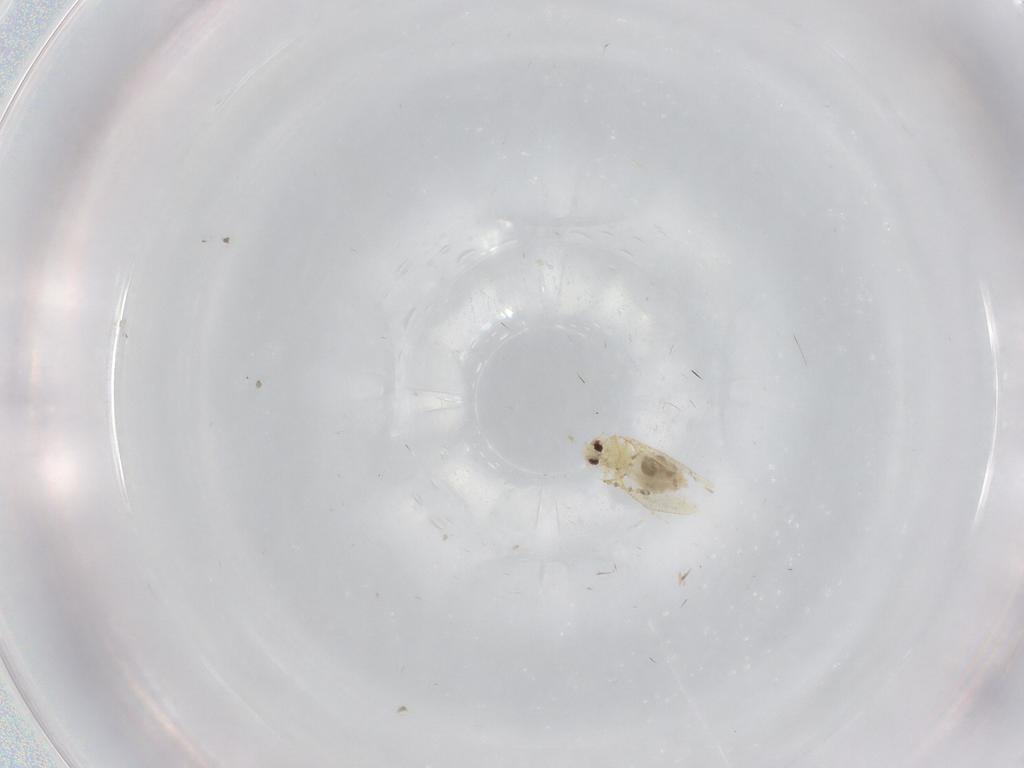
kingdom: Animalia
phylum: Arthropoda
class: Insecta
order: Hemiptera
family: Aleyrodidae
